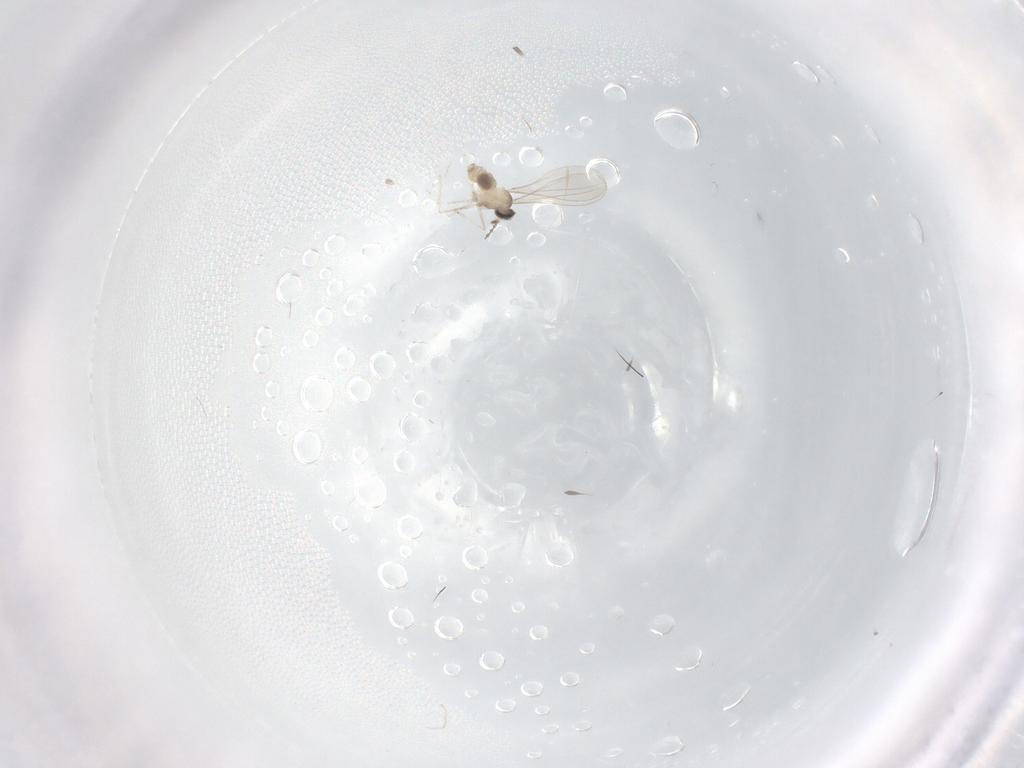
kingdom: Animalia
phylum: Arthropoda
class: Insecta
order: Diptera
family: Cecidomyiidae
